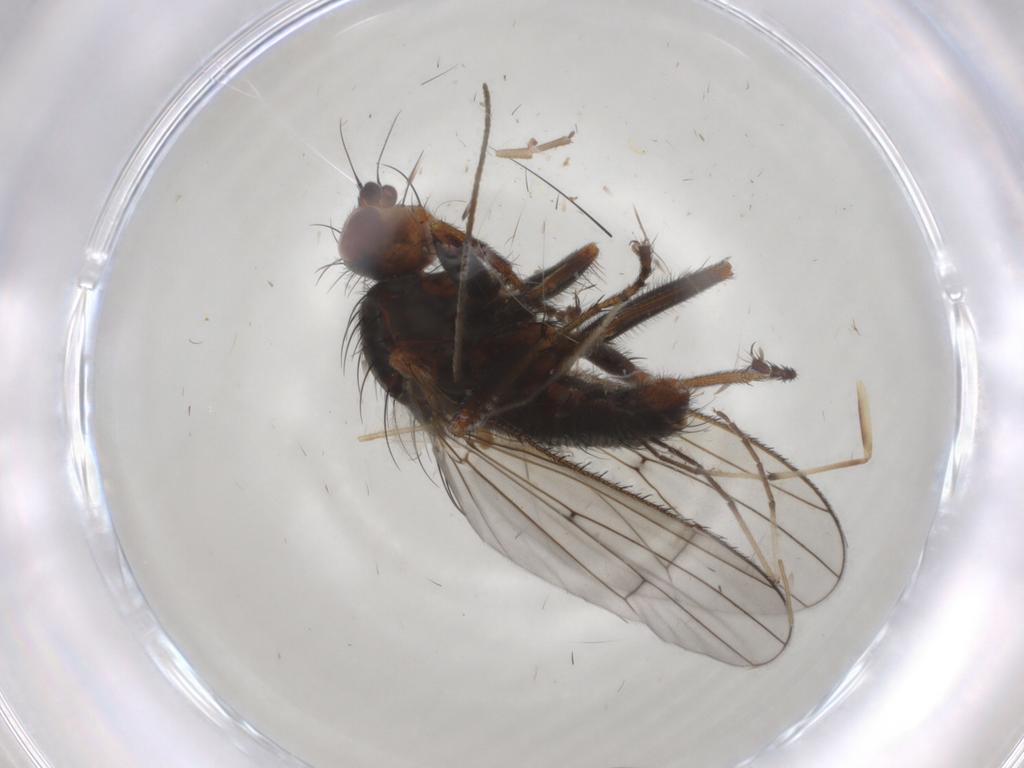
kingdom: Animalia
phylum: Arthropoda
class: Insecta
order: Diptera
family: Heleomyzidae
